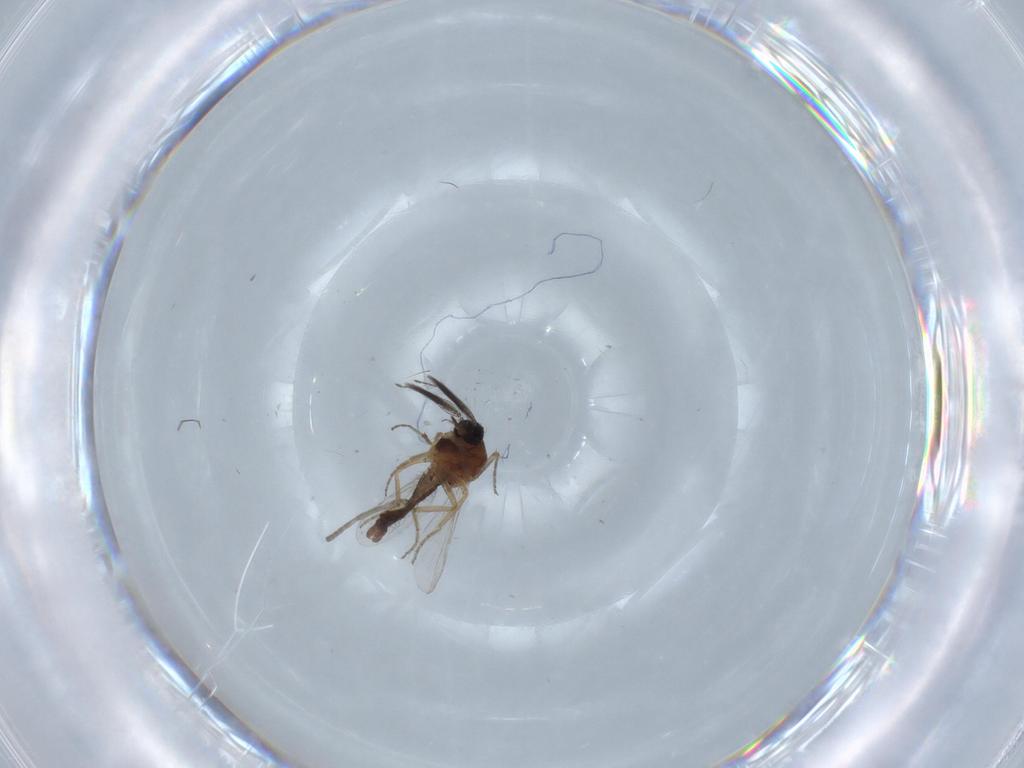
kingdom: Animalia
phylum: Arthropoda
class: Insecta
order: Diptera
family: Ceratopogonidae
